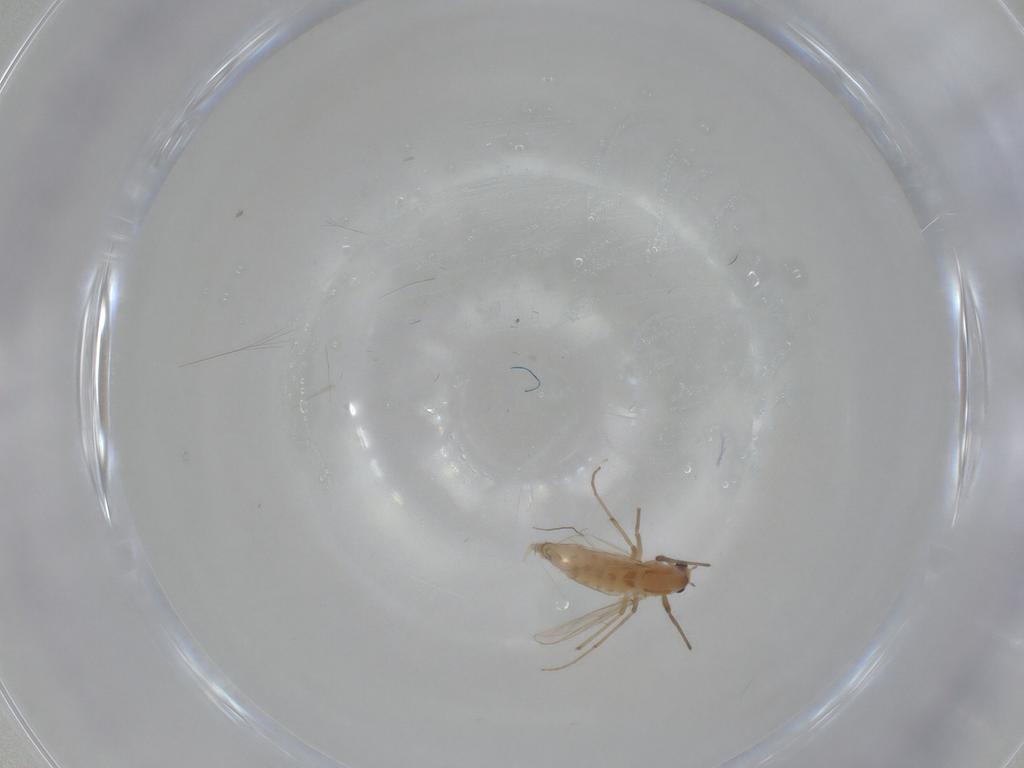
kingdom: Animalia
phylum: Arthropoda
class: Insecta
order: Diptera
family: Chironomidae
